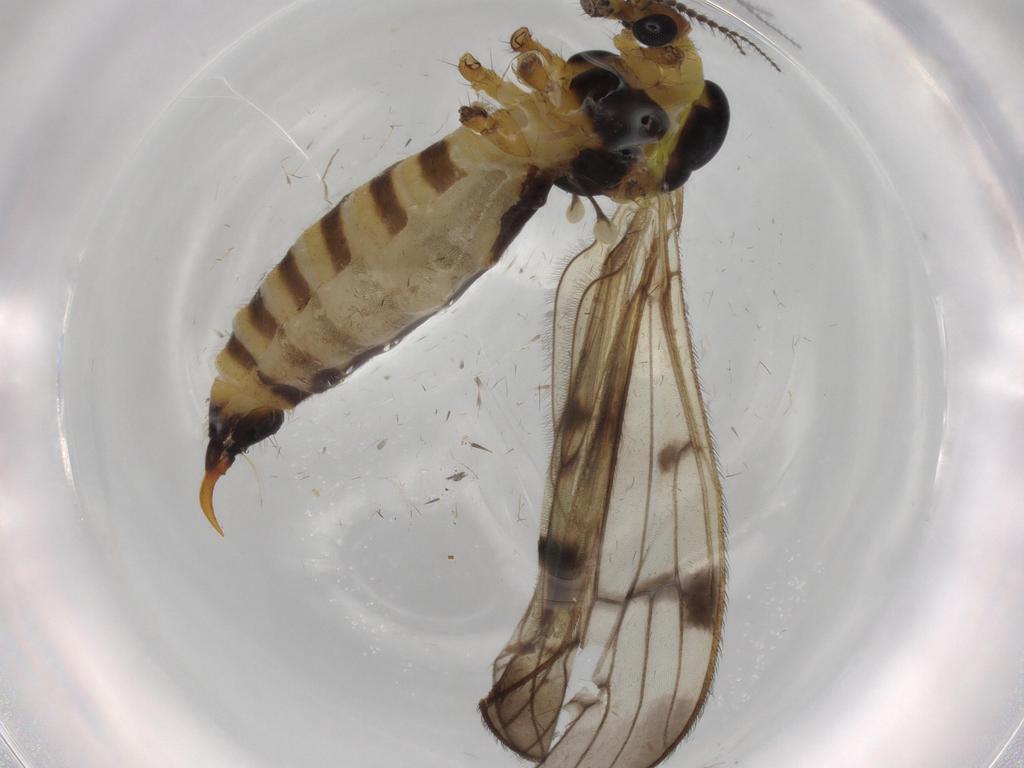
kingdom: Animalia
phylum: Arthropoda
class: Insecta
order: Diptera
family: Limoniidae
